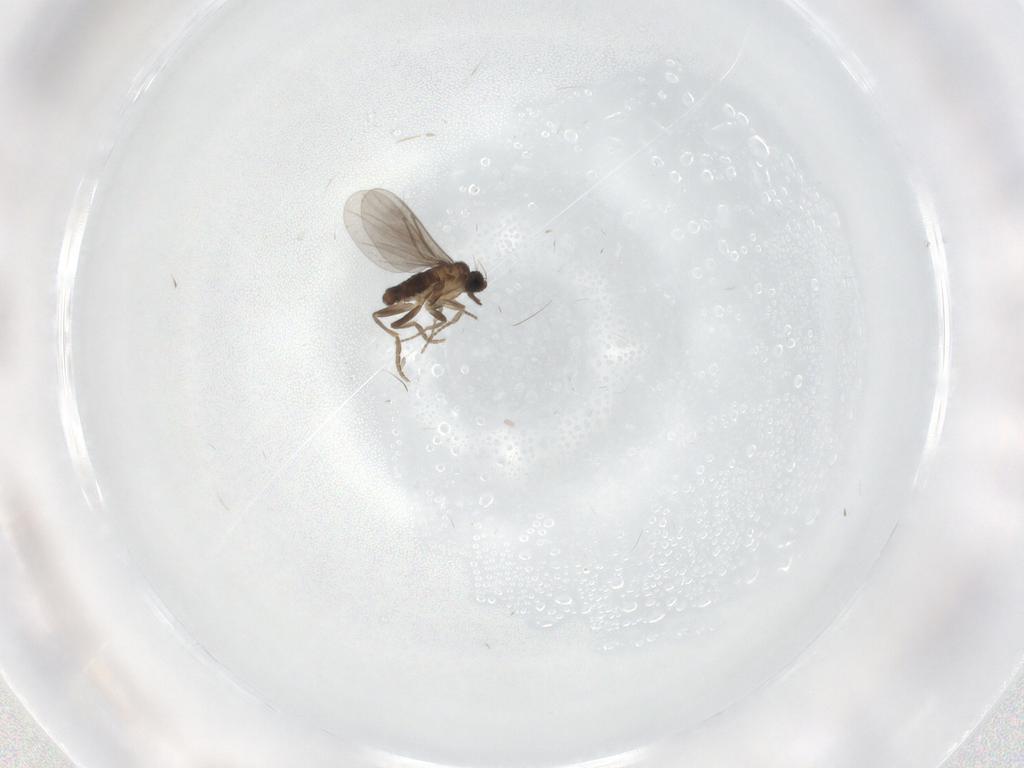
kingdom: Animalia
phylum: Arthropoda
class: Insecta
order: Diptera
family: Phoridae
